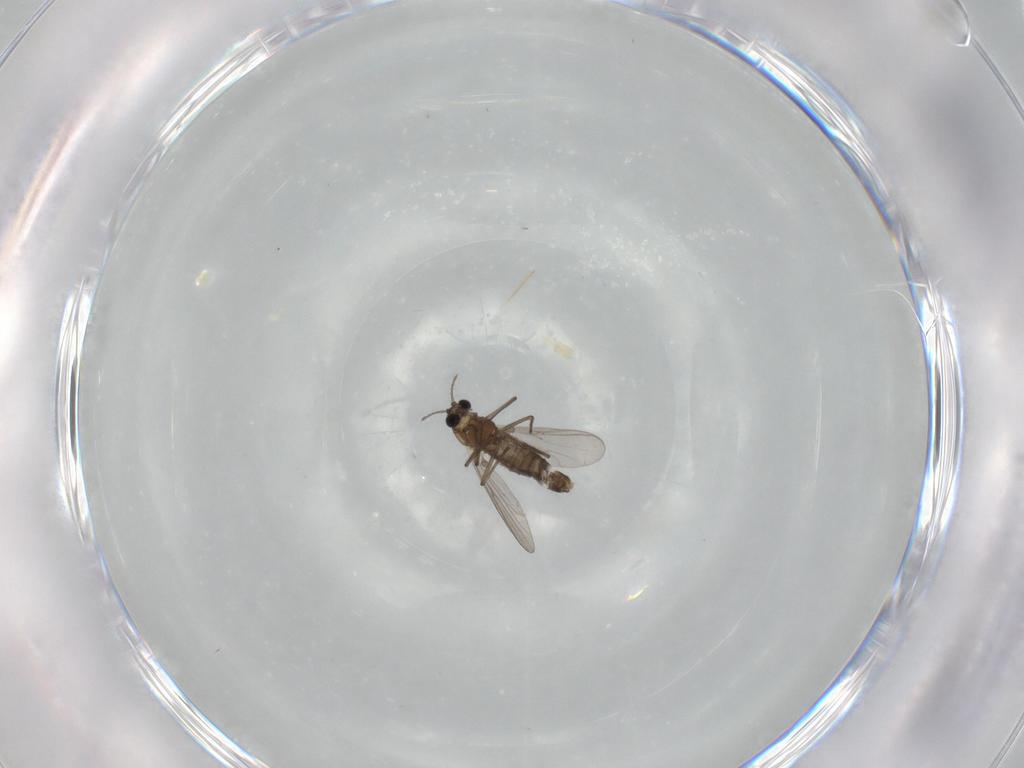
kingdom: Animalia
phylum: Arthropoda
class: Insecta
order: Diptera
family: Chironomidae
